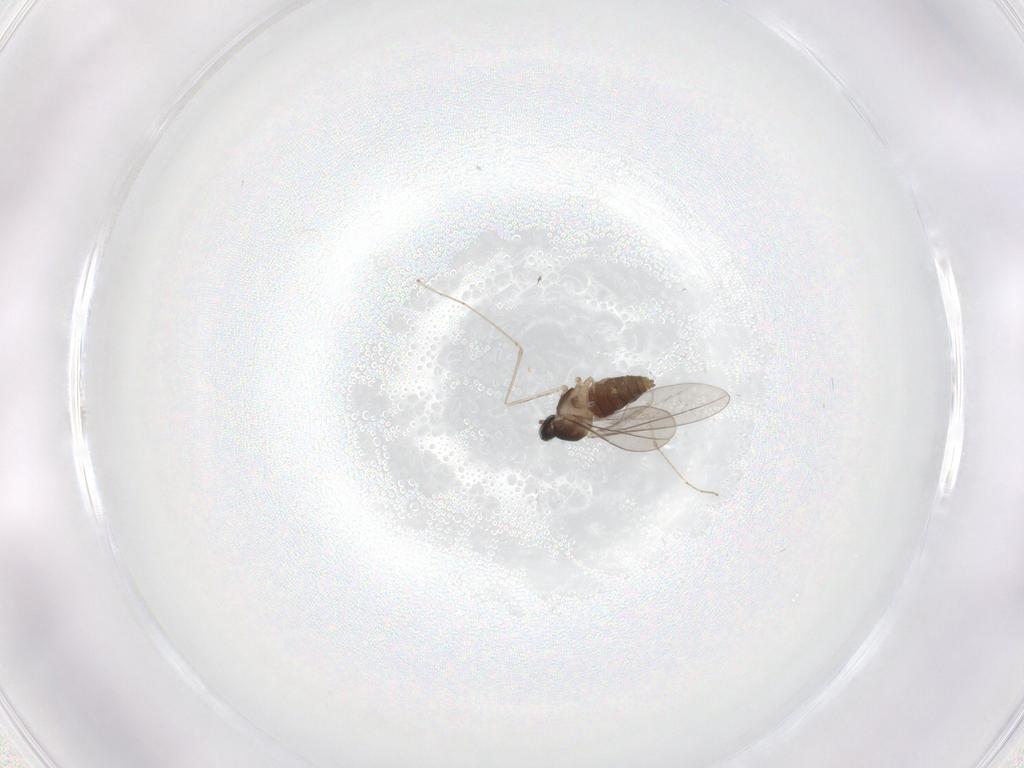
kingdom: Animalia
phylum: Arthropoda
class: Insecta
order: Diptera
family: Cecidomyiidae
